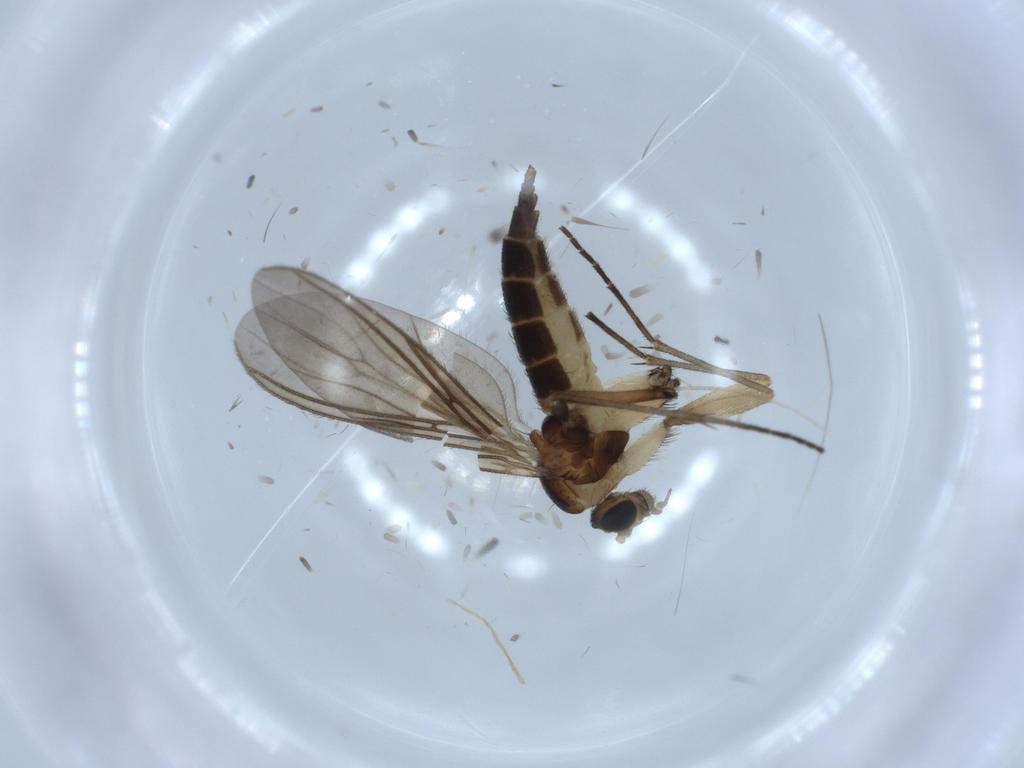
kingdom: Animalia
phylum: Arthropoda
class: Insecta
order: Diptera
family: Sciaridae
